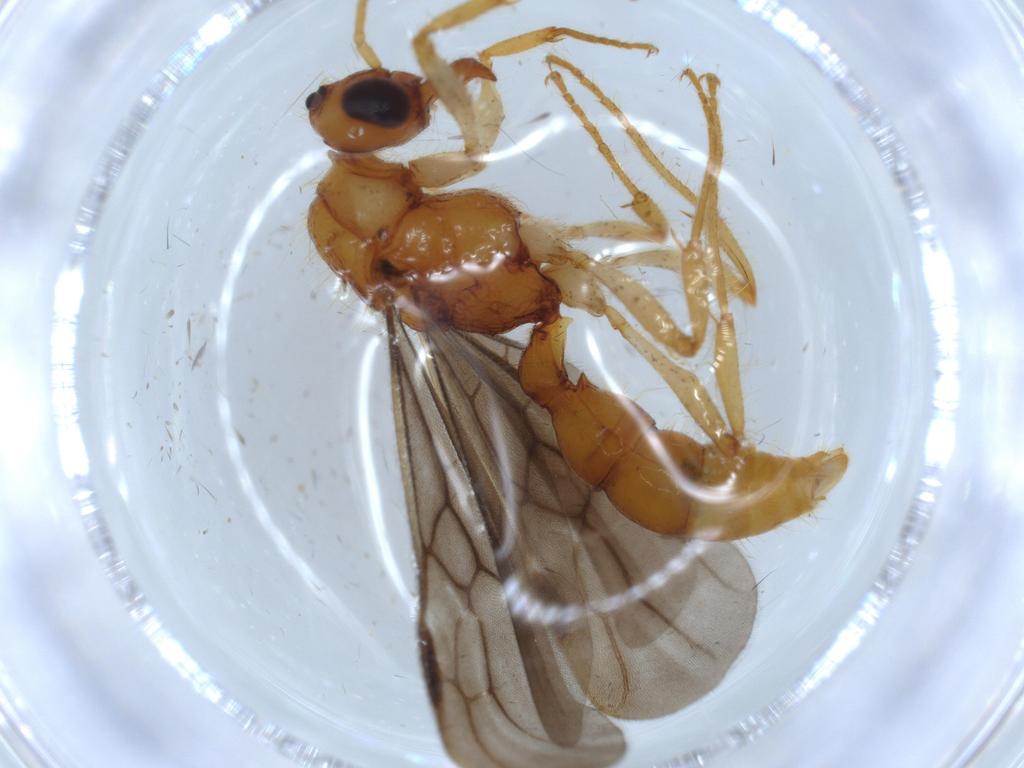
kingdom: Animalia
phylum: Arthropoda
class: Insecta
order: Hymenoptera
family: Formicidae
